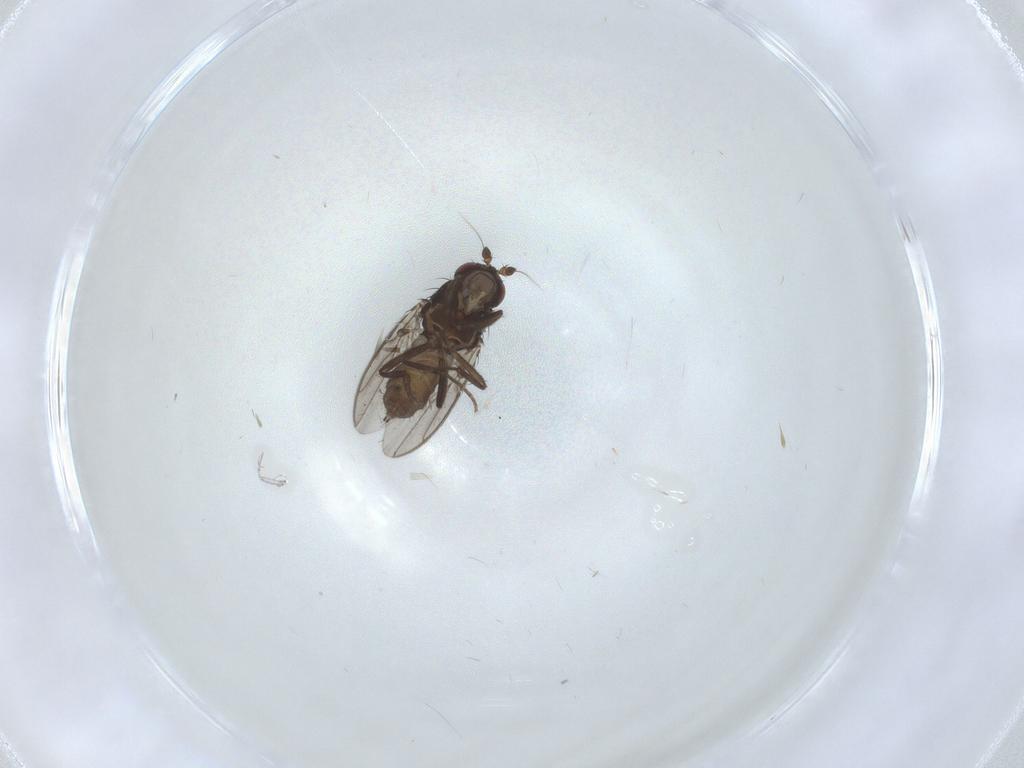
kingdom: Animalia
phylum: Arthropoda
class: Insecta
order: Diptera
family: Sphaeroceridae
